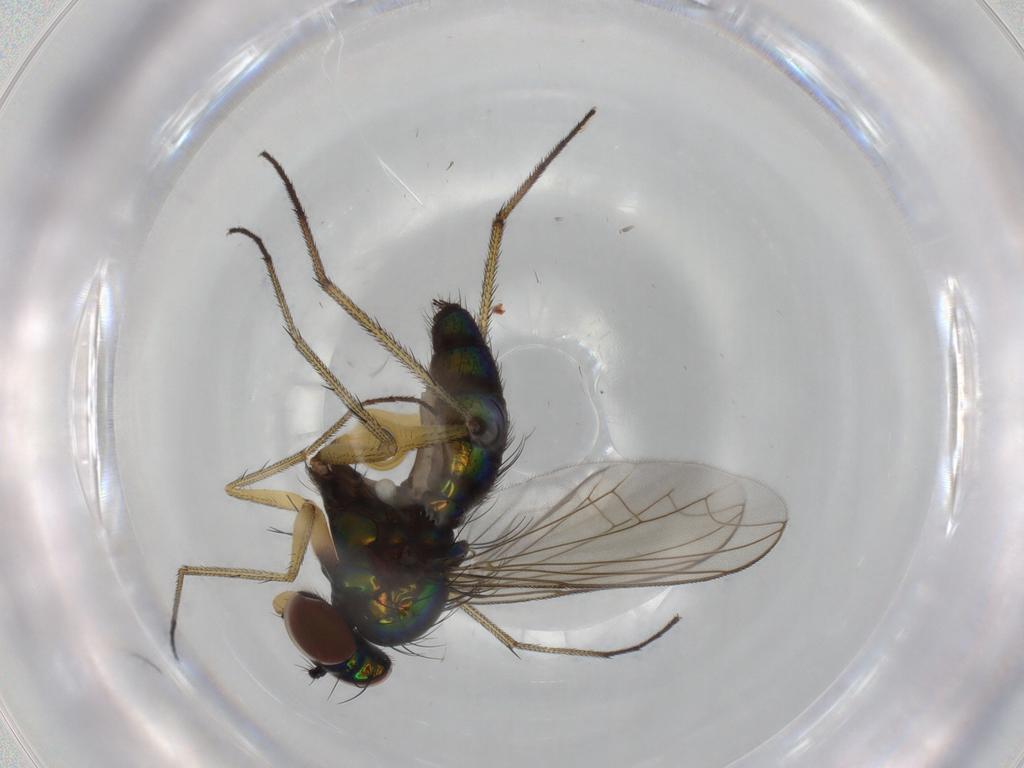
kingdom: Animalia
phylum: Arthropoda
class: Insecta
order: Diptera
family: Dolichopodidae
